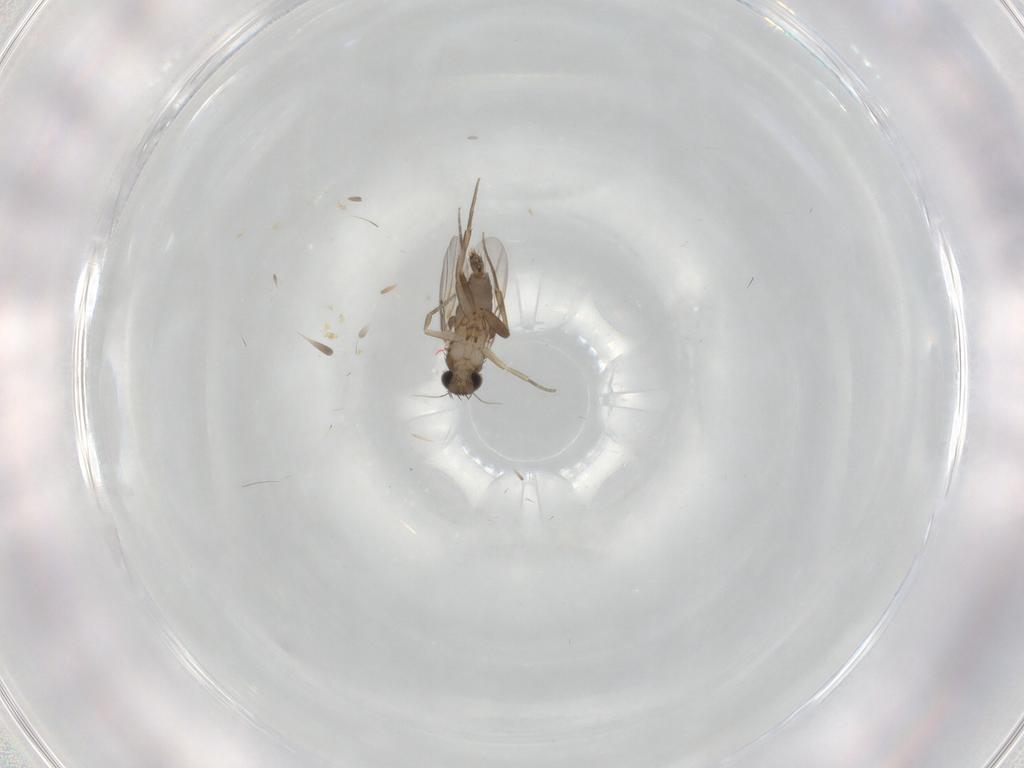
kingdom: Animalia
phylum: Arthropoda
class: Insecta
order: Diptera
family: Phoridae
